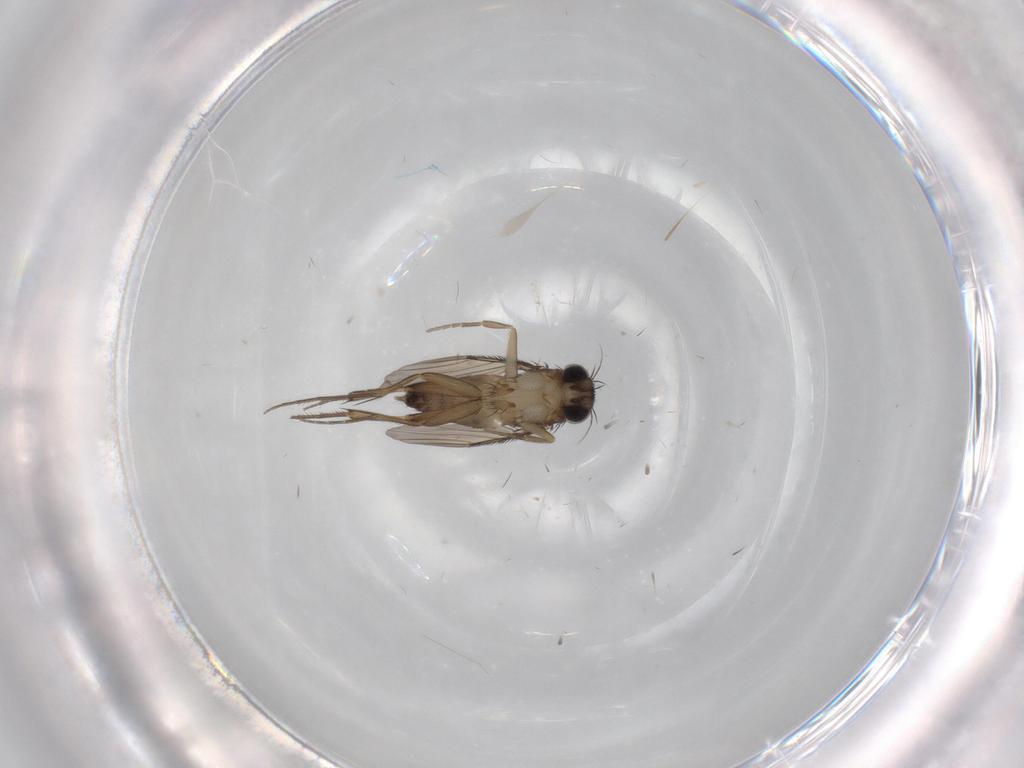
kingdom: Animalia
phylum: Arthropoda
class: Insecta
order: Diptera
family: Phoridae
